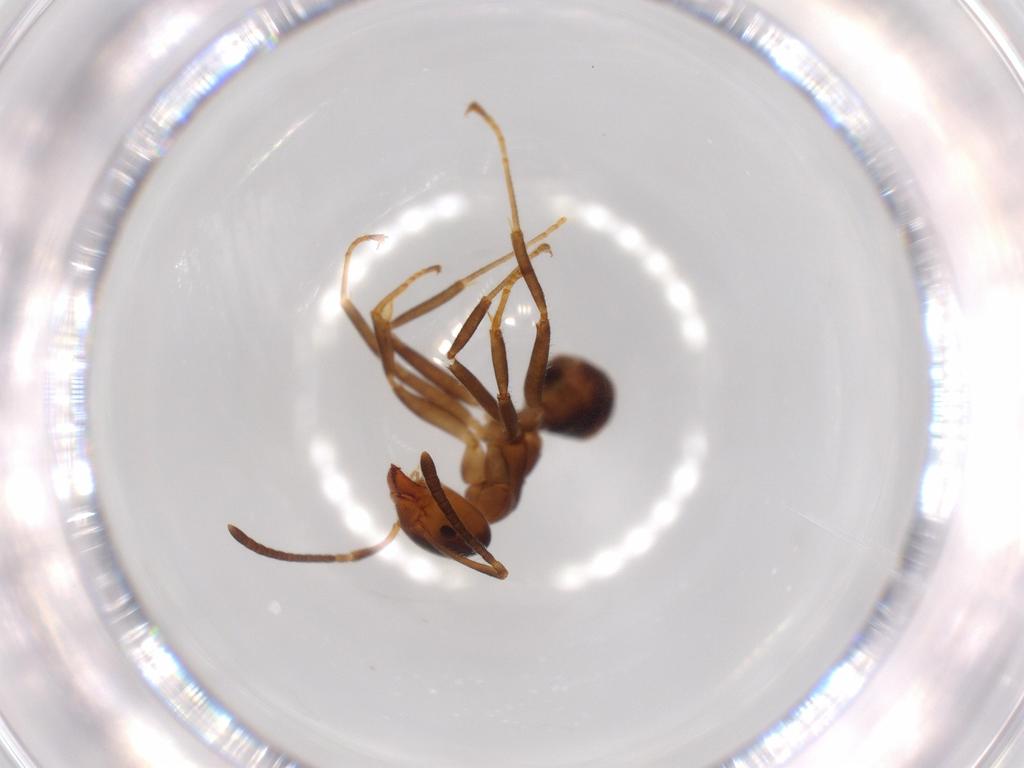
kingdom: Animalia
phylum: Arthropoda
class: Insecta
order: Hymenoptera
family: Formicidae
